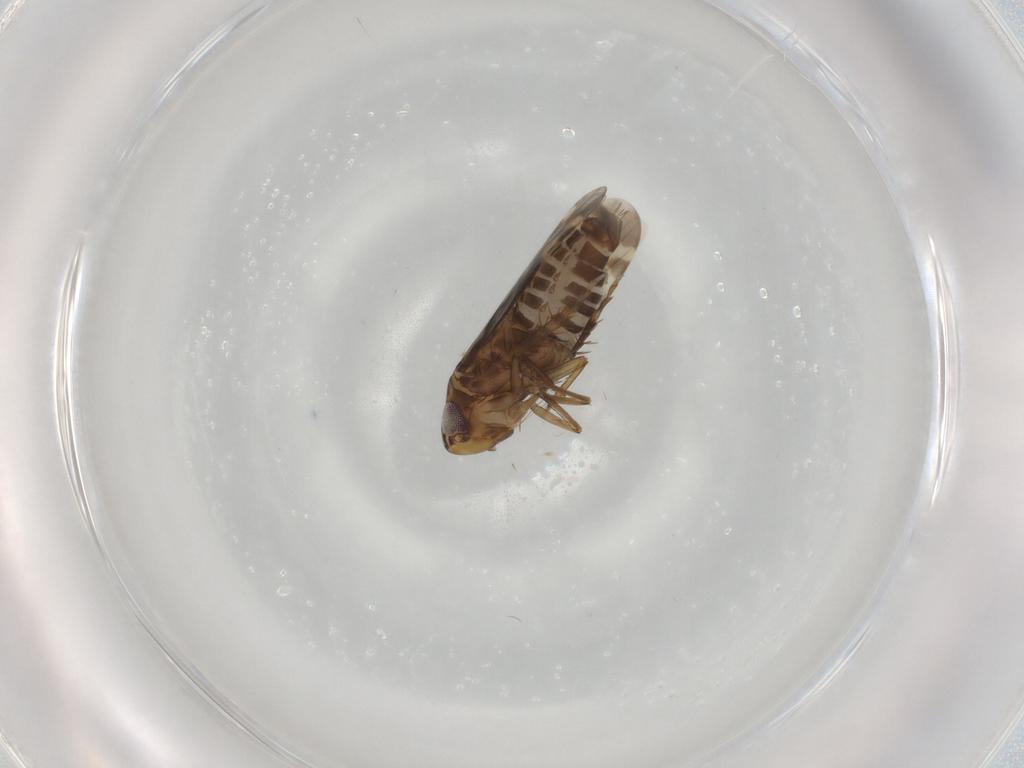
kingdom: Animalia
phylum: Arthropoda
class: Insecta
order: Hemiptera
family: Cicadellidae
